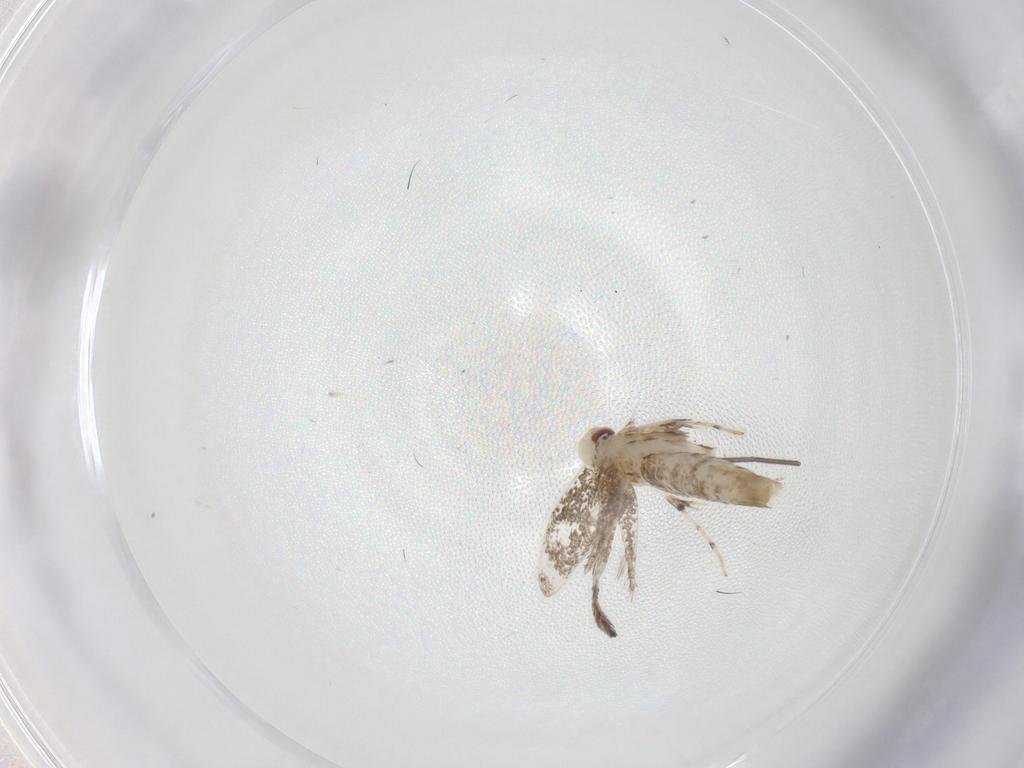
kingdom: Animalia
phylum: Arthropoda
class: Insecta
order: Lepidoptera
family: Gracillariidae
